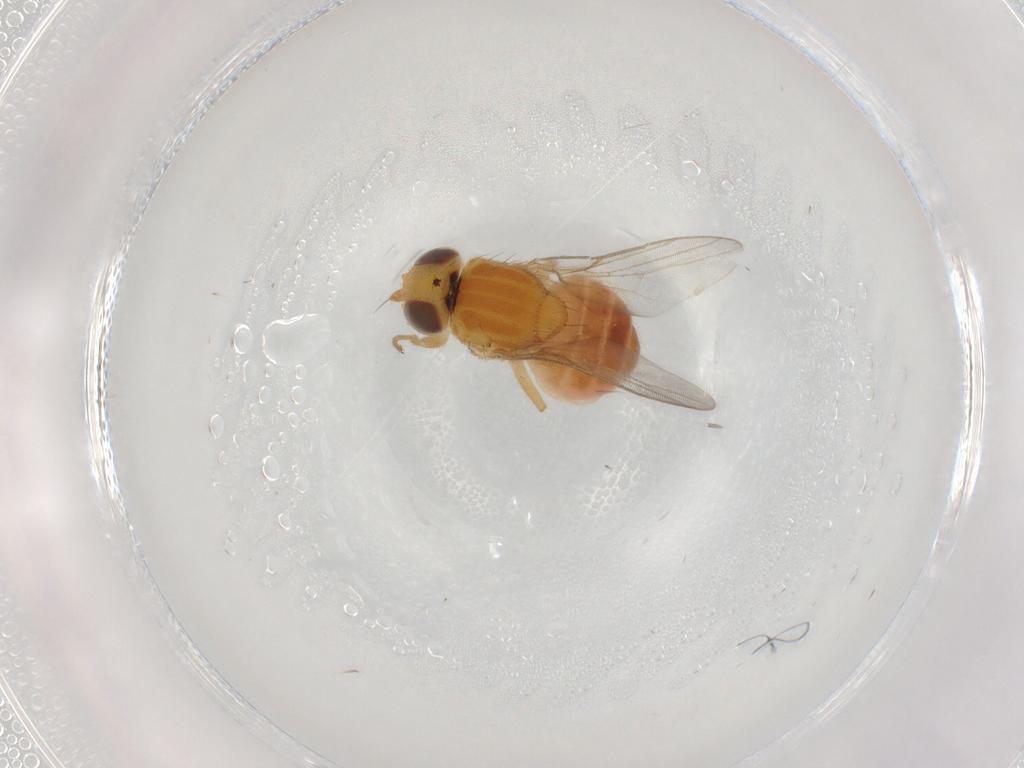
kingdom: Animalia
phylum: Arthropoda
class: Insecta
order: Diptera
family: Chloropidae
